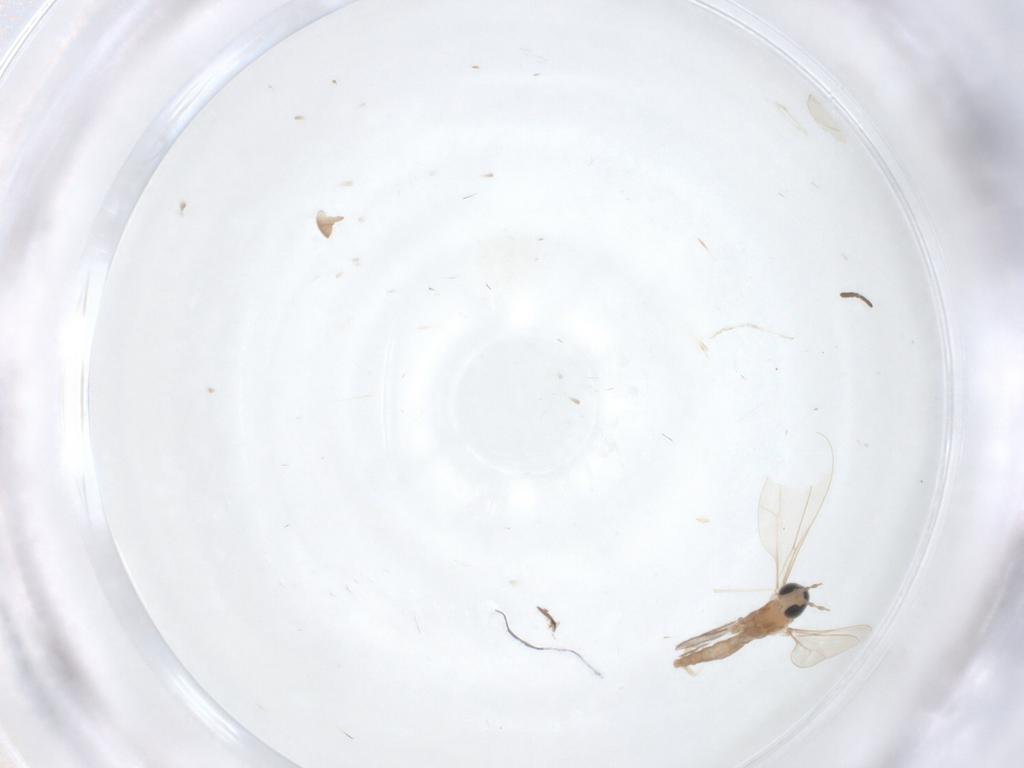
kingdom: Animalia
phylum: Arthropoda
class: Insecta
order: Diptera
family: Cecidomyiidae
